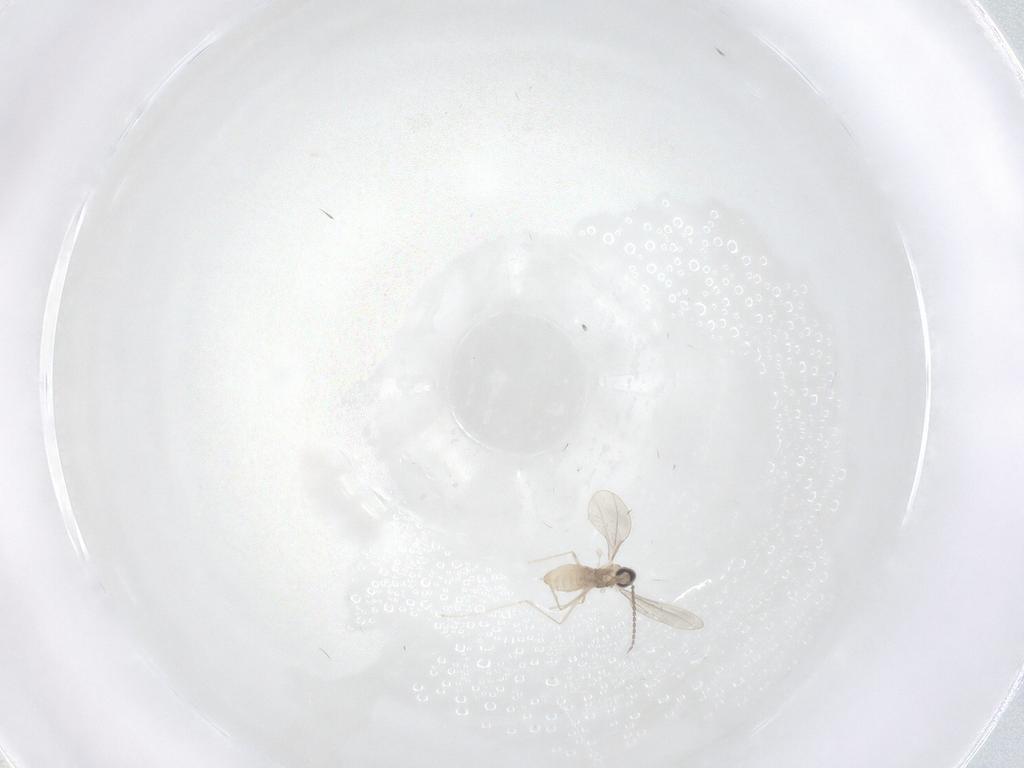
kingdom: Animalia
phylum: Arthropoda
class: Insecta
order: Diptera
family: Cecidomyiidae
